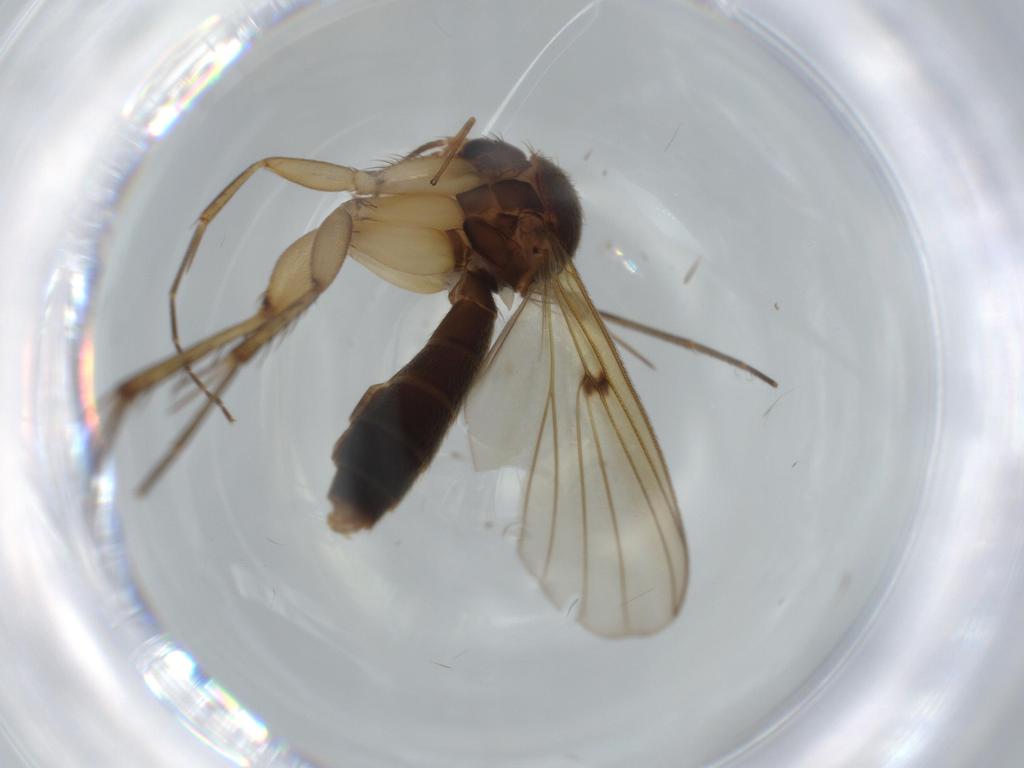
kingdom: Animalia
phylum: Arthropoda
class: Insecta
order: Diptera
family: Mycetophilidae
